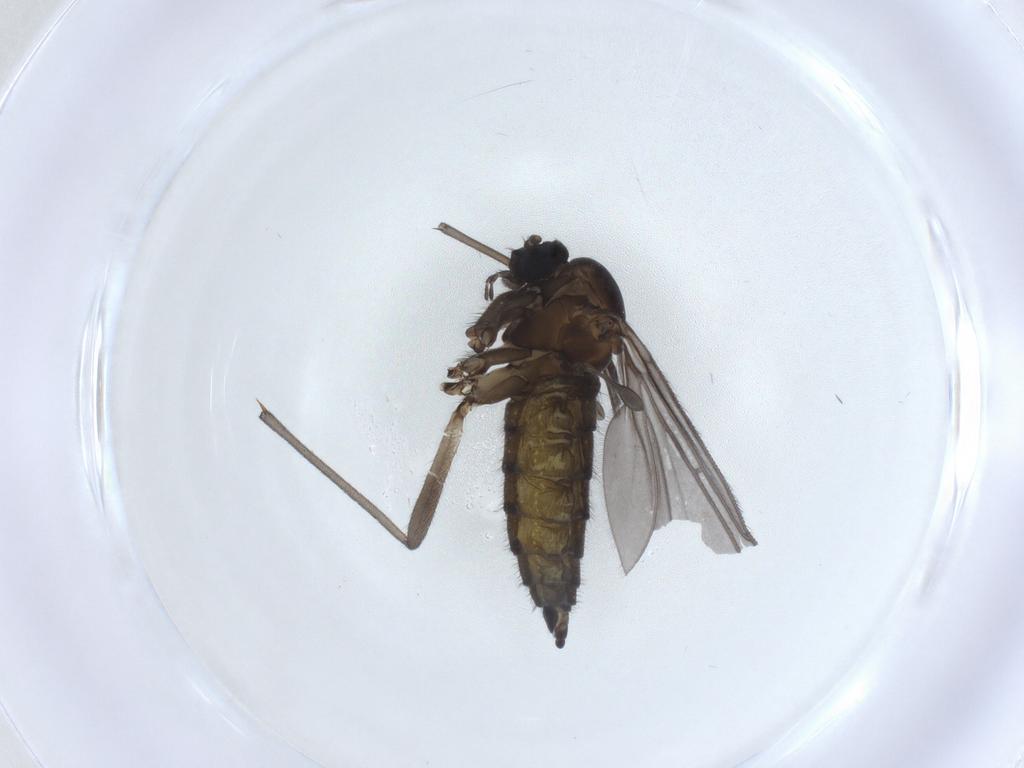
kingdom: Animalia
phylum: Arthropoda
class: Insecta
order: Diptera
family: Sciaridae
